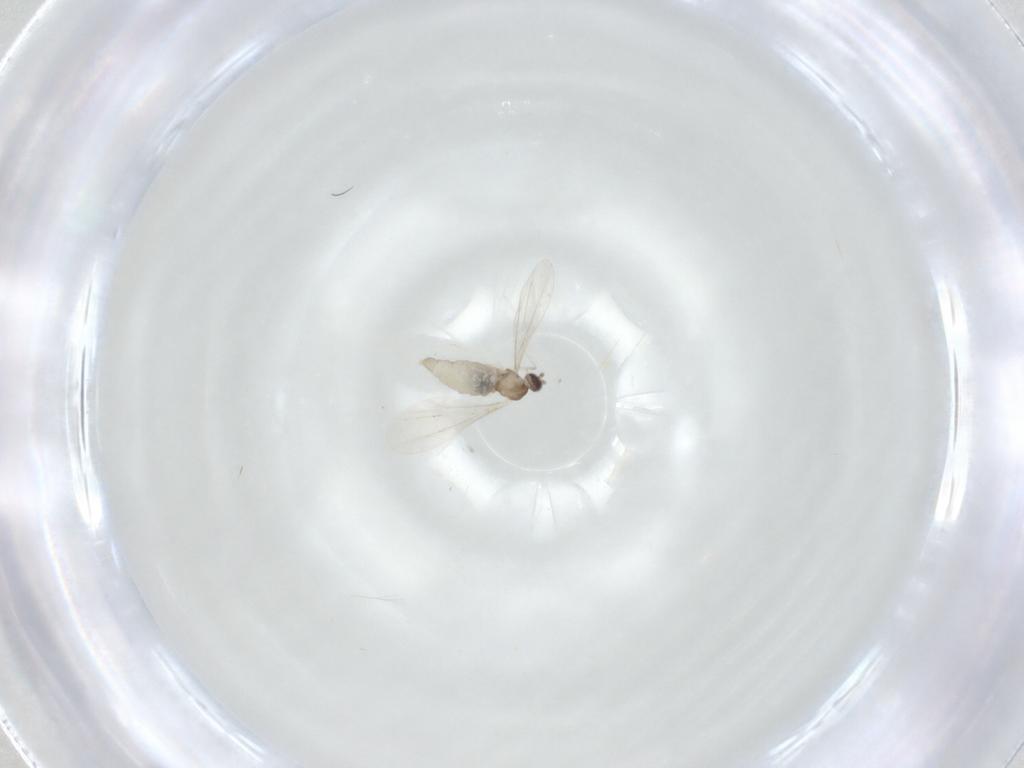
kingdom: Animalia
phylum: Arthropoda
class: Insecta
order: Diptera
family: Cecidomyiidae
